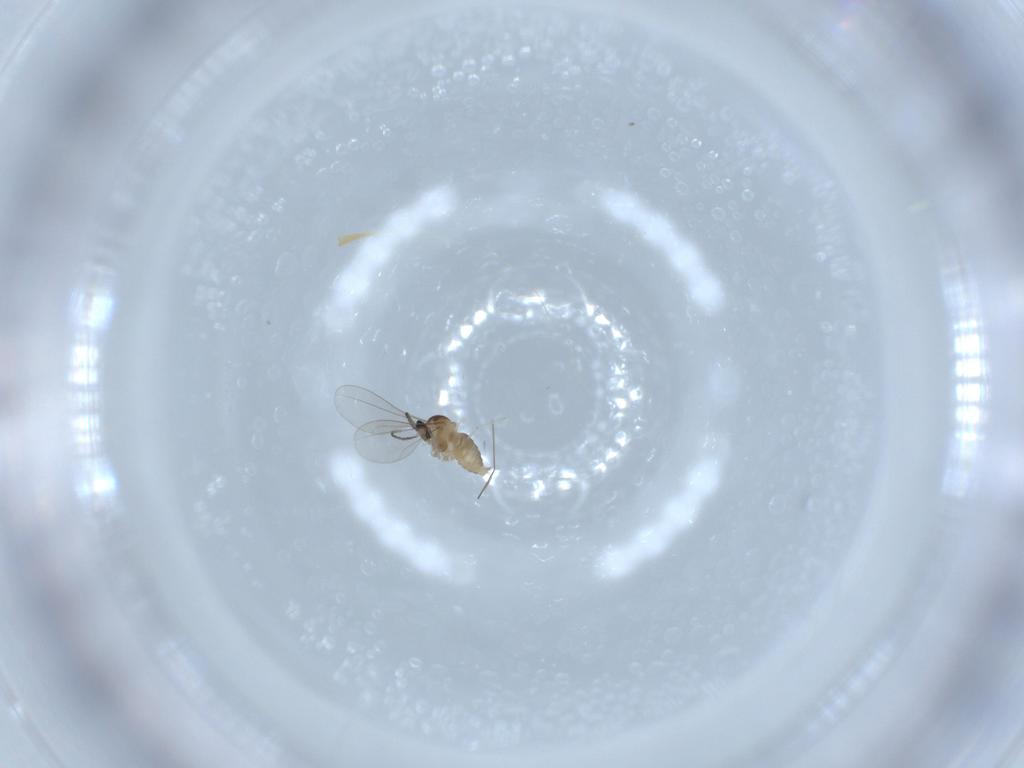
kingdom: Animalia
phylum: Arthropoda
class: Insecta
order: Diptera
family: Cecidomyiidae
